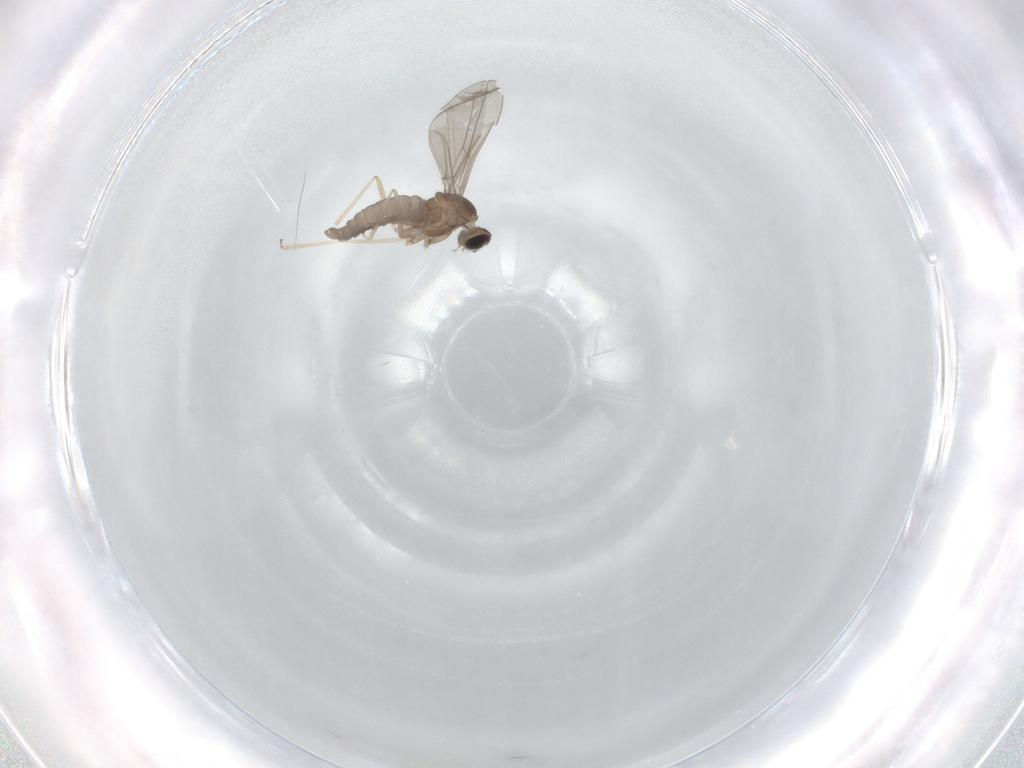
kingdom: Animalia
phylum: Arthropoda
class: Insecta
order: Diptera
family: Cecidomyiidae
